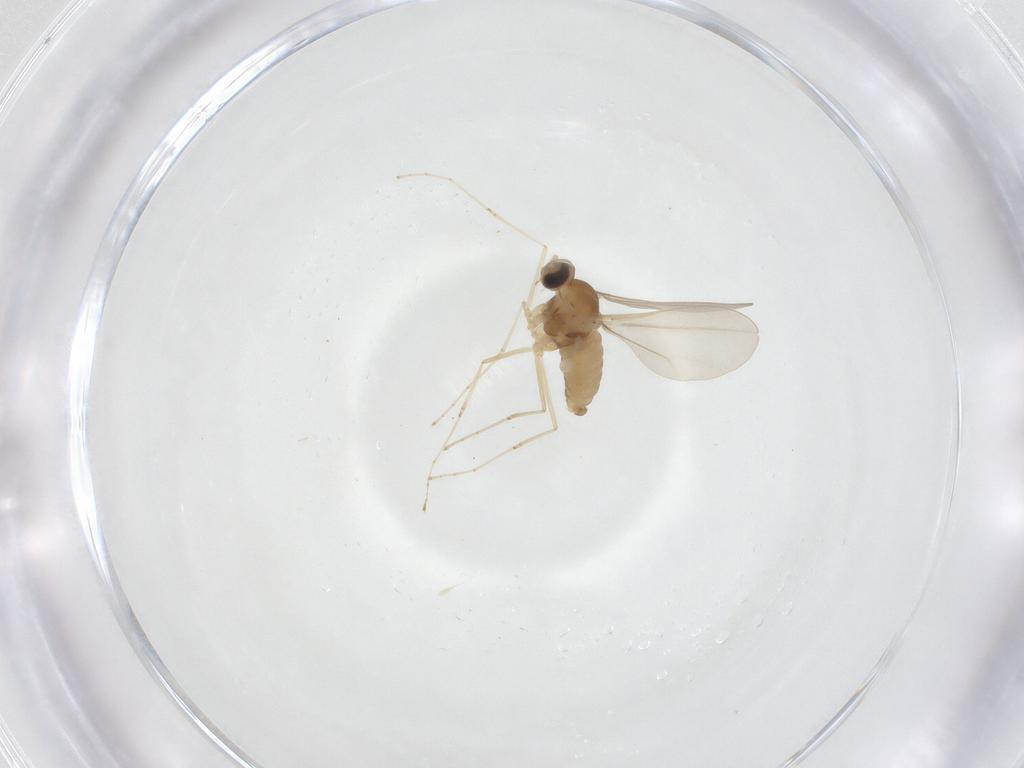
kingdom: Animalia
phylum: Arthropoda
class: Insecta
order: Diptera
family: Cecidomyiidae
